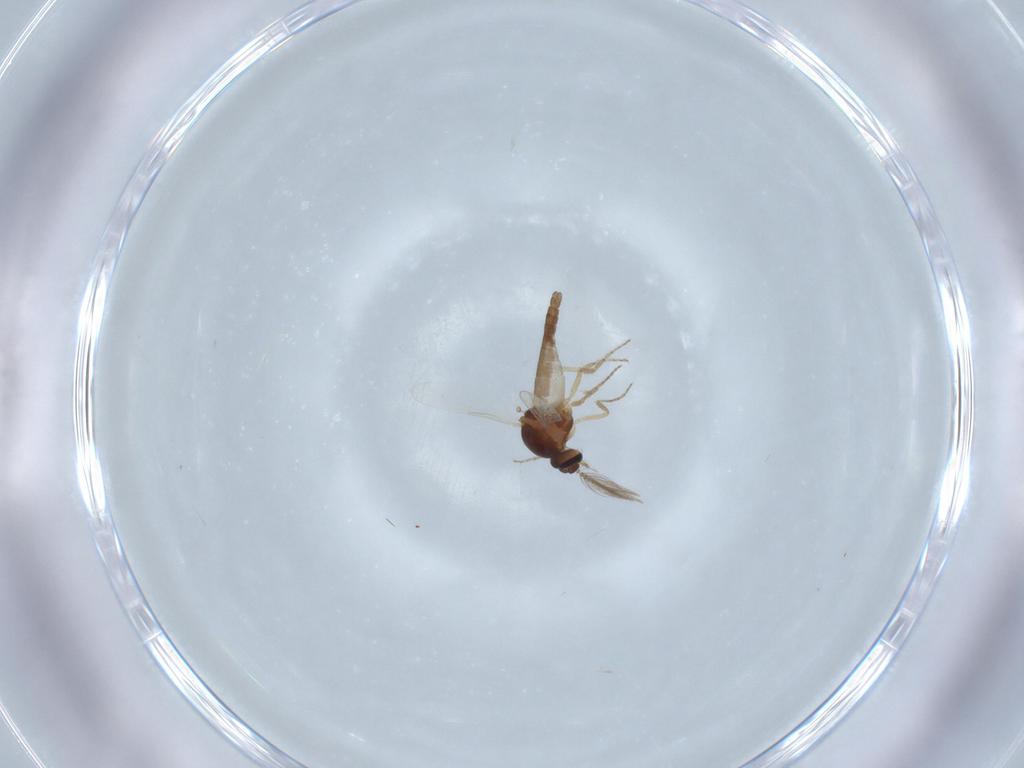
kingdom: Animalia
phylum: Arthropoda
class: Insecta
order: Diptera
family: Ceratopogonidae
